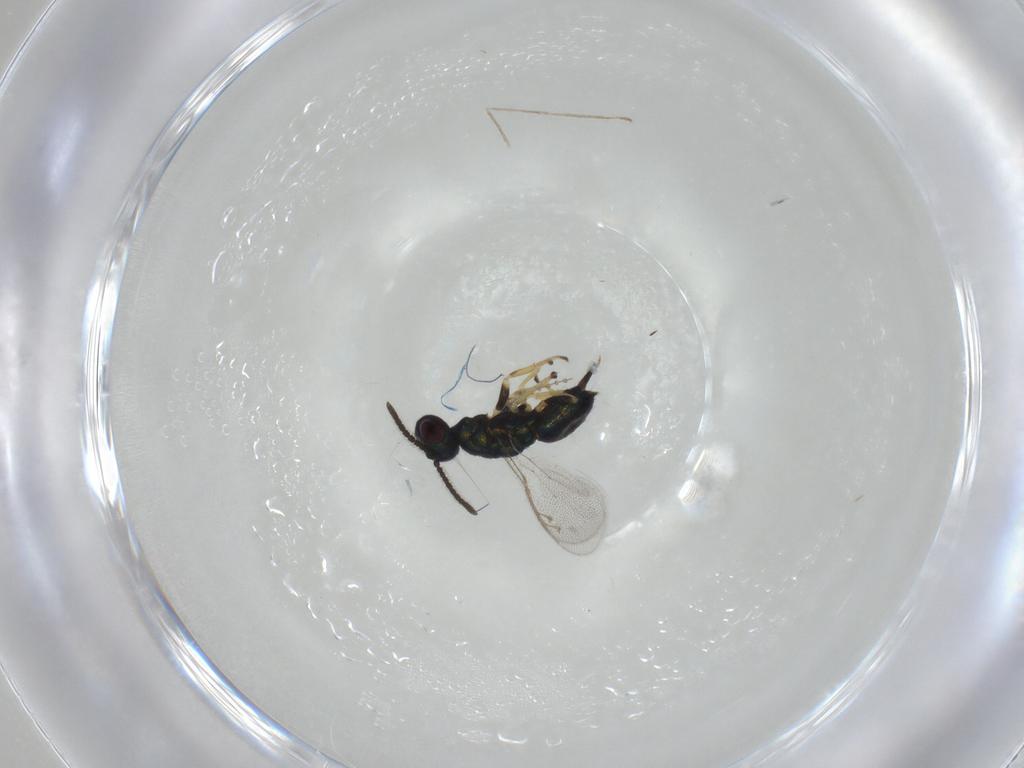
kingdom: Animalia
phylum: Arthropoda
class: Insecta
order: Hymenoptera
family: Eupelmidae
